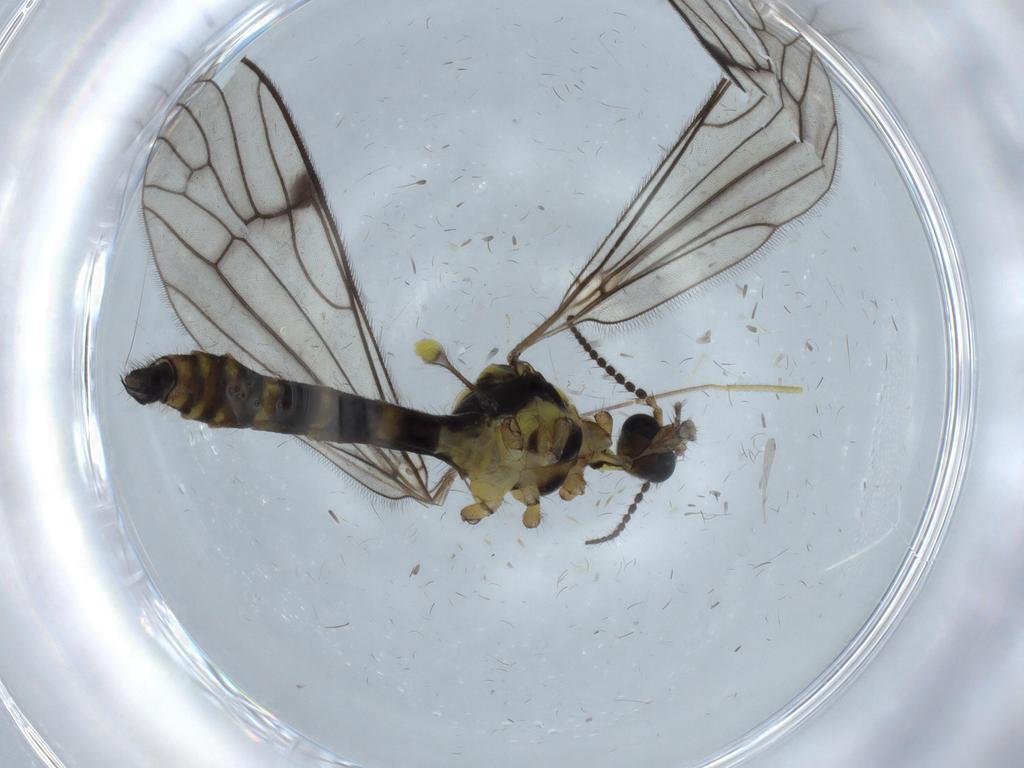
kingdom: Animalia
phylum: Arthropoda
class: Insecta
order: Diptera
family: Limoniidae
